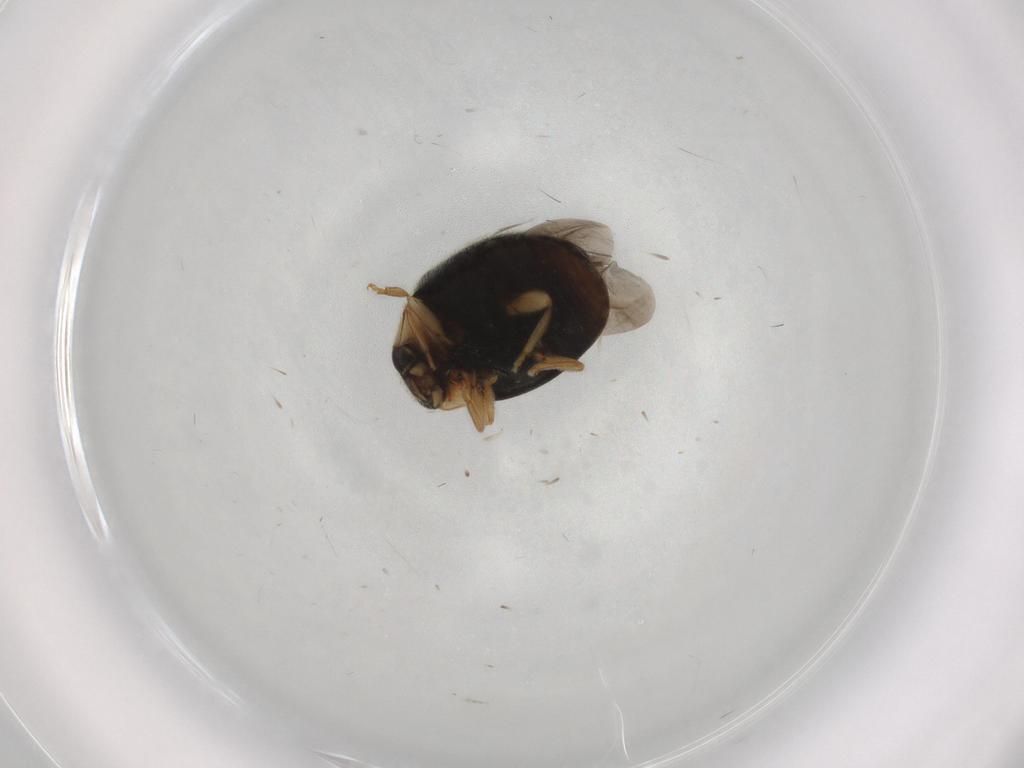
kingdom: Animalia
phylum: Arthropoda
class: Insecta
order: Coleoptera
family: Coccinellidae
